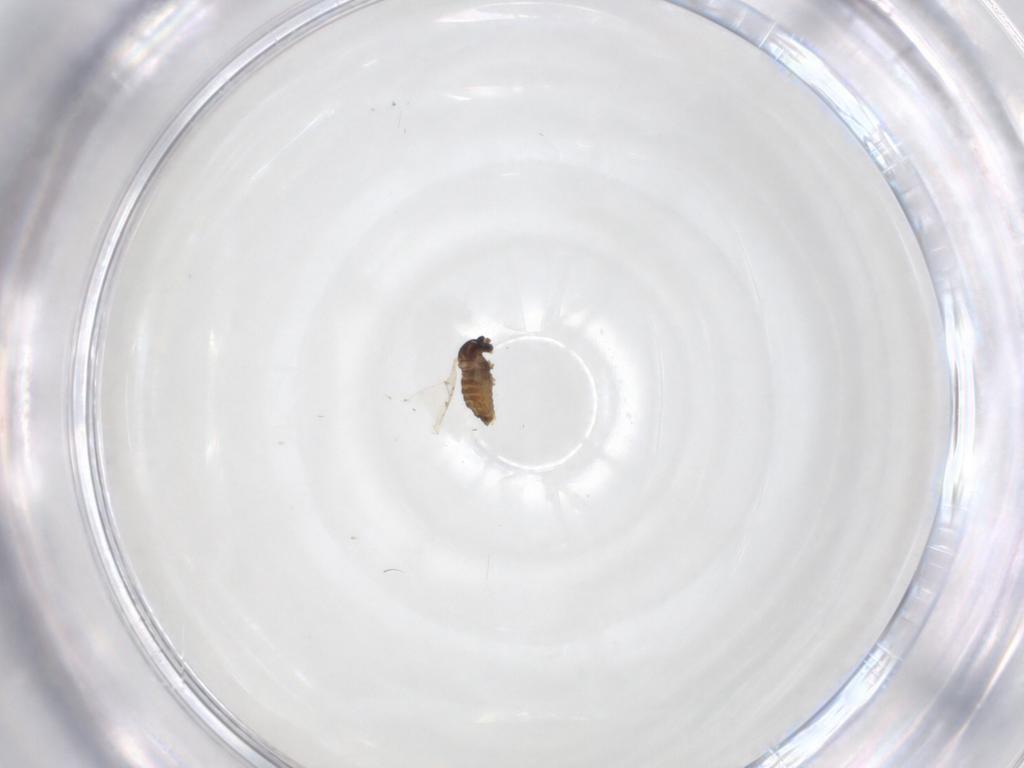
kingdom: Animalia
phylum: Arthropoda
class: Insecta
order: Diptera
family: Cecidomyiidae
